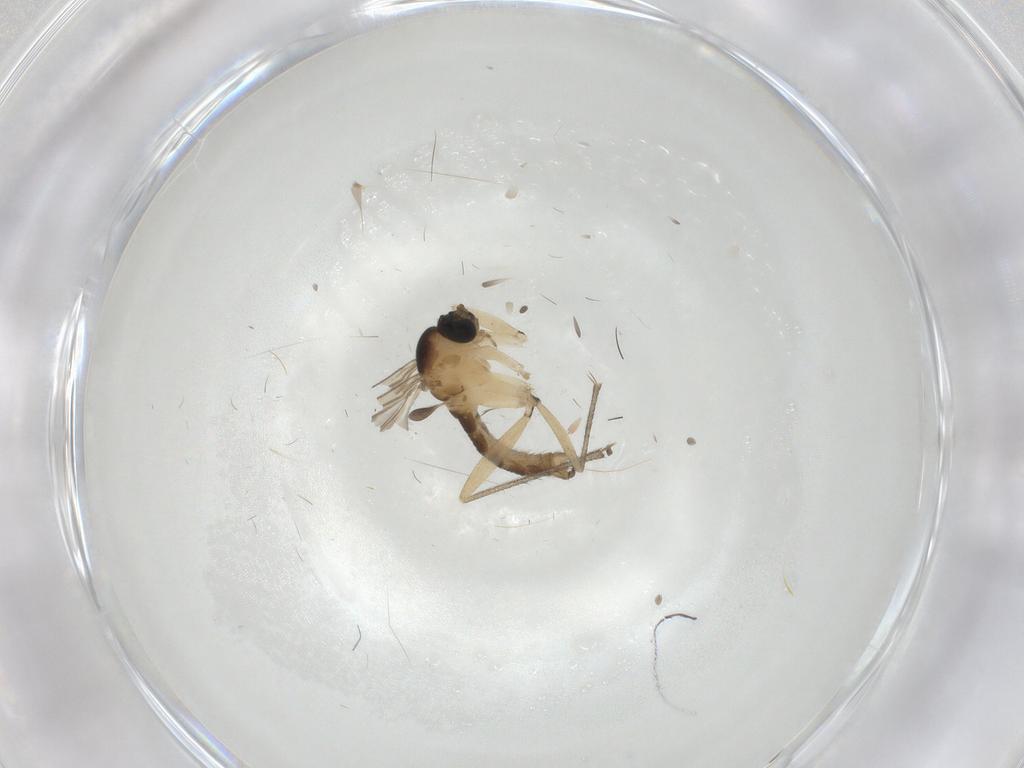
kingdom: Animalia
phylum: Arthropoda
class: Insecta
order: Diptera
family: Sciaridae
